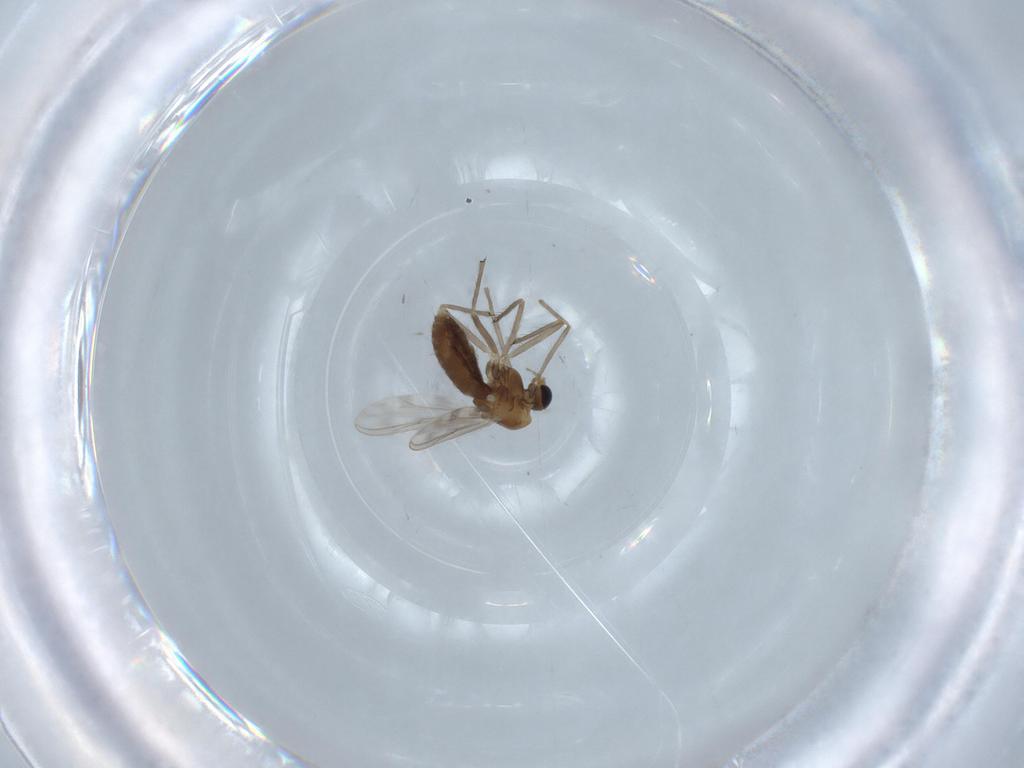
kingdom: Animalia
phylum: Arthropoda
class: Insecta
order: Diptera
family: Chironomidae
